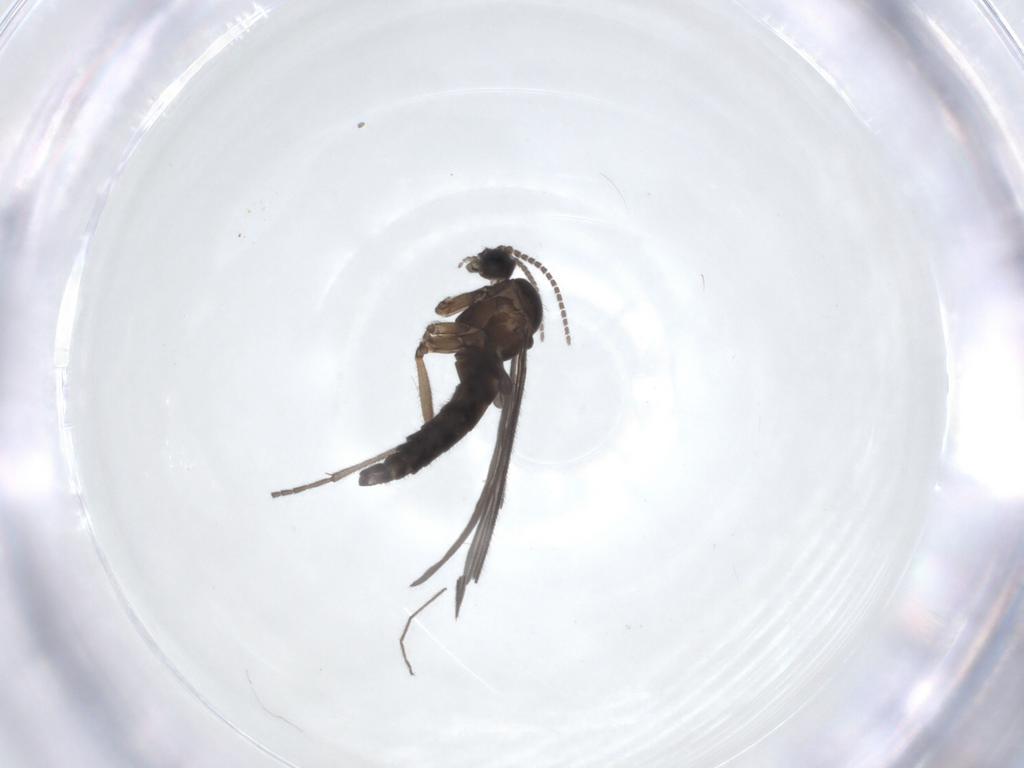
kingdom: Animalia
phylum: Arthropoda
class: Insecta
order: Diptera
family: Sciaridae
